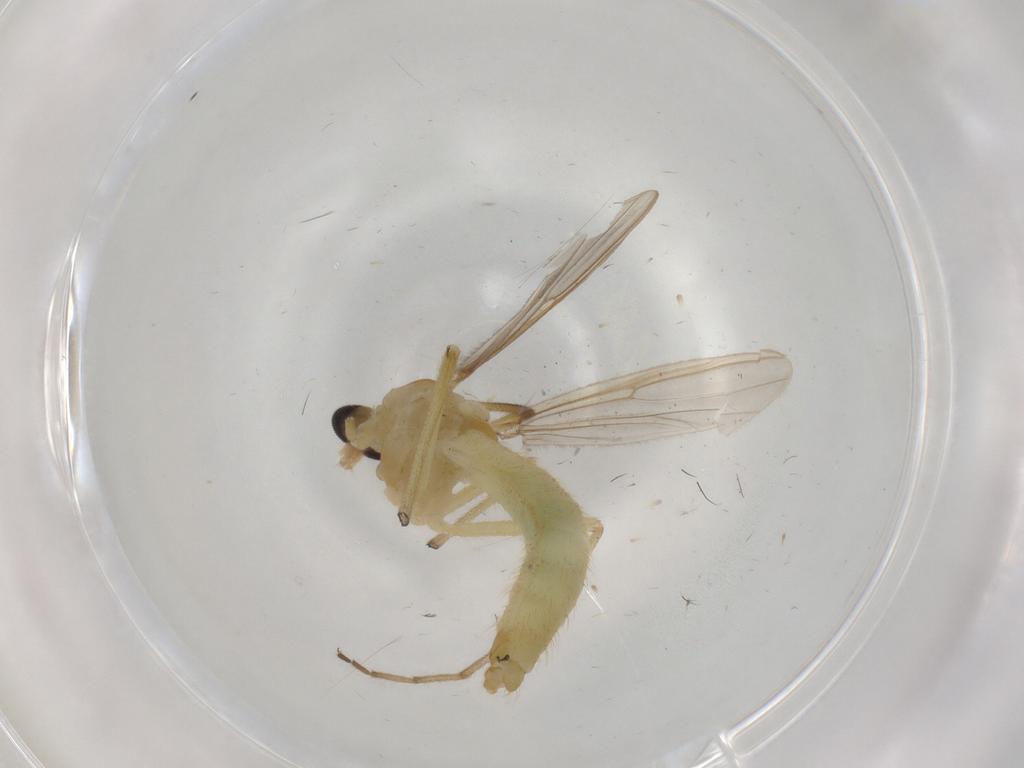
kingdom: Animalia
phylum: Arthropoda
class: Insecta
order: Diptera
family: Chironomidae
